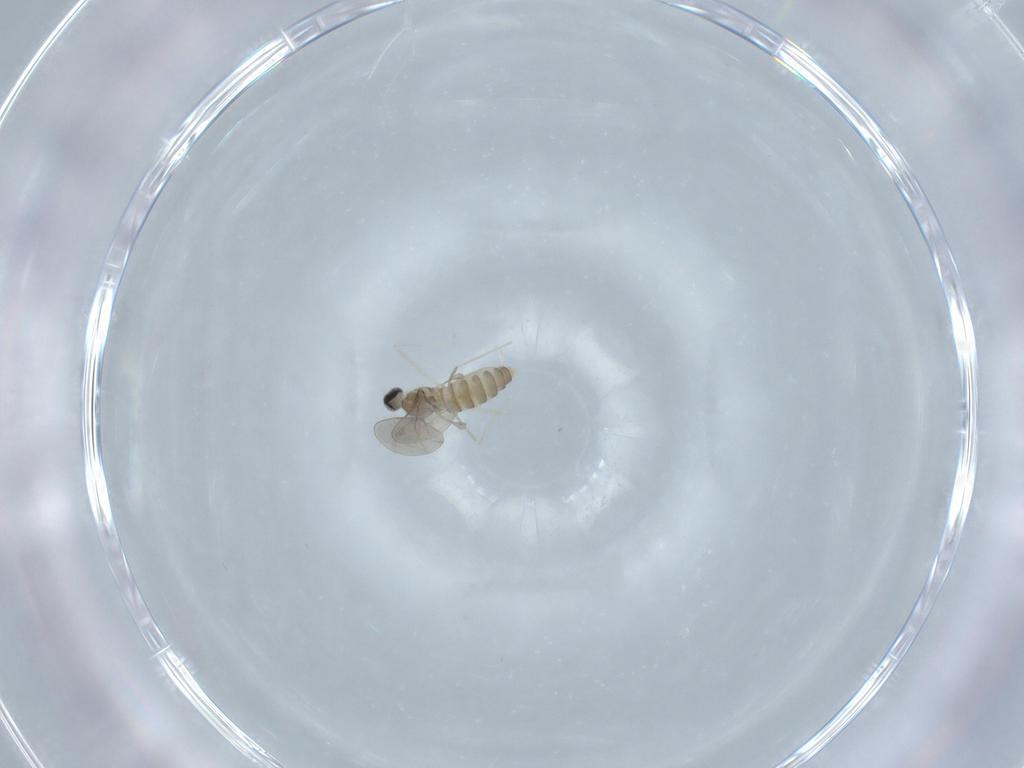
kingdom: Animalia
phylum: Arthropoda
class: Insecta
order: Diptera
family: Cecidomyiidae
